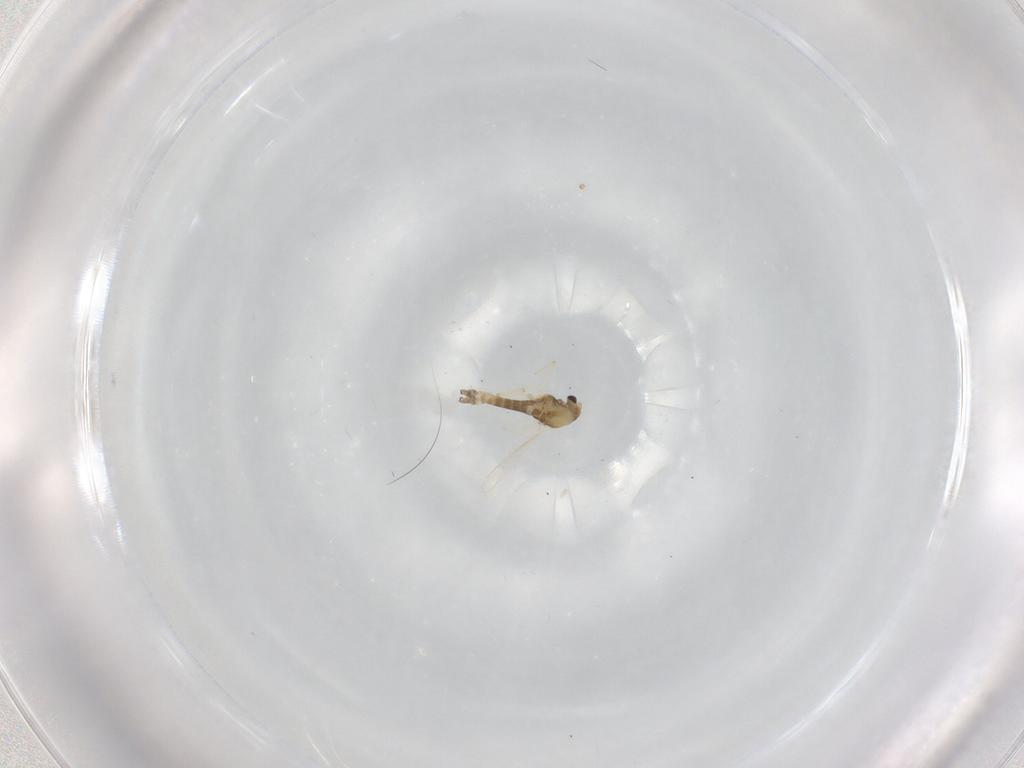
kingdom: Animalia
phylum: Arthropoda
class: Insecta
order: Diptera
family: Chironomidae
